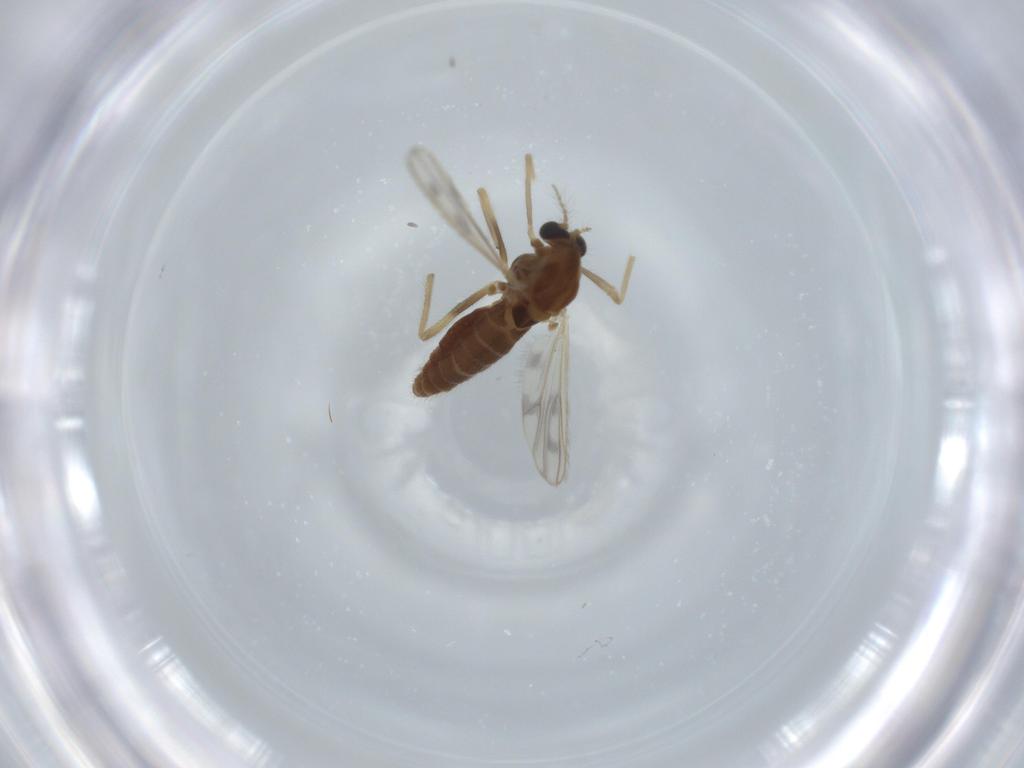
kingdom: Animalia
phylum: Arthropoda
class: Insecta
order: Diptera
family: Chironomidae
